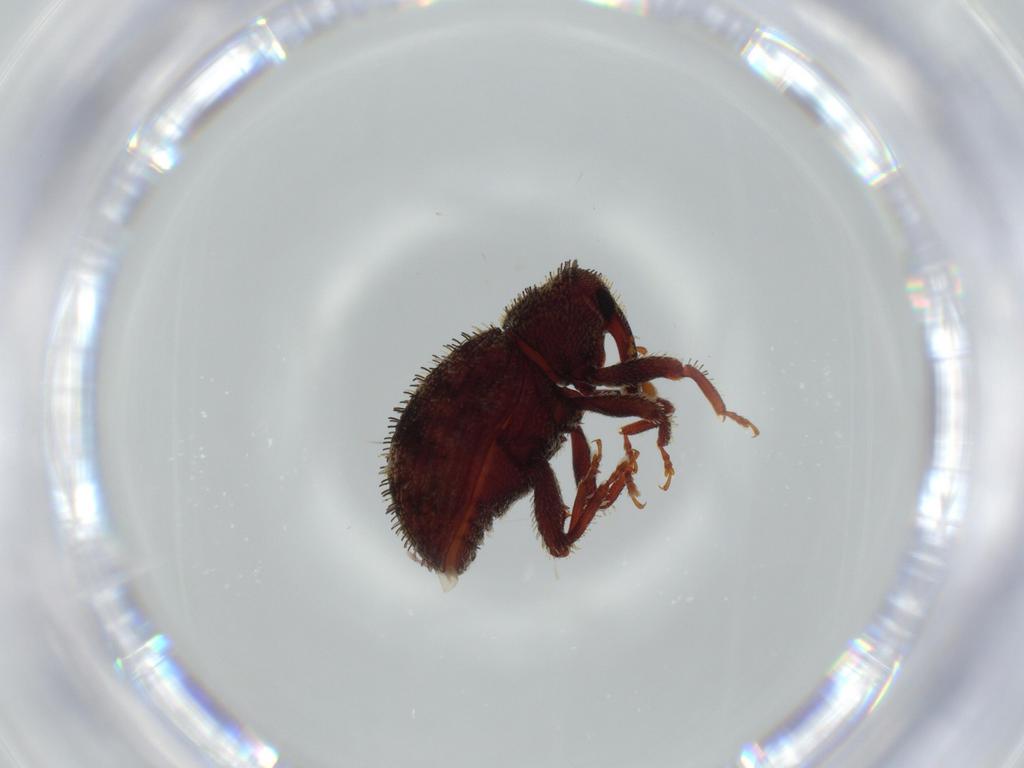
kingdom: Animalia
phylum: Arthropoda
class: Insecta
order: Coleoptera
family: Curculionidae
